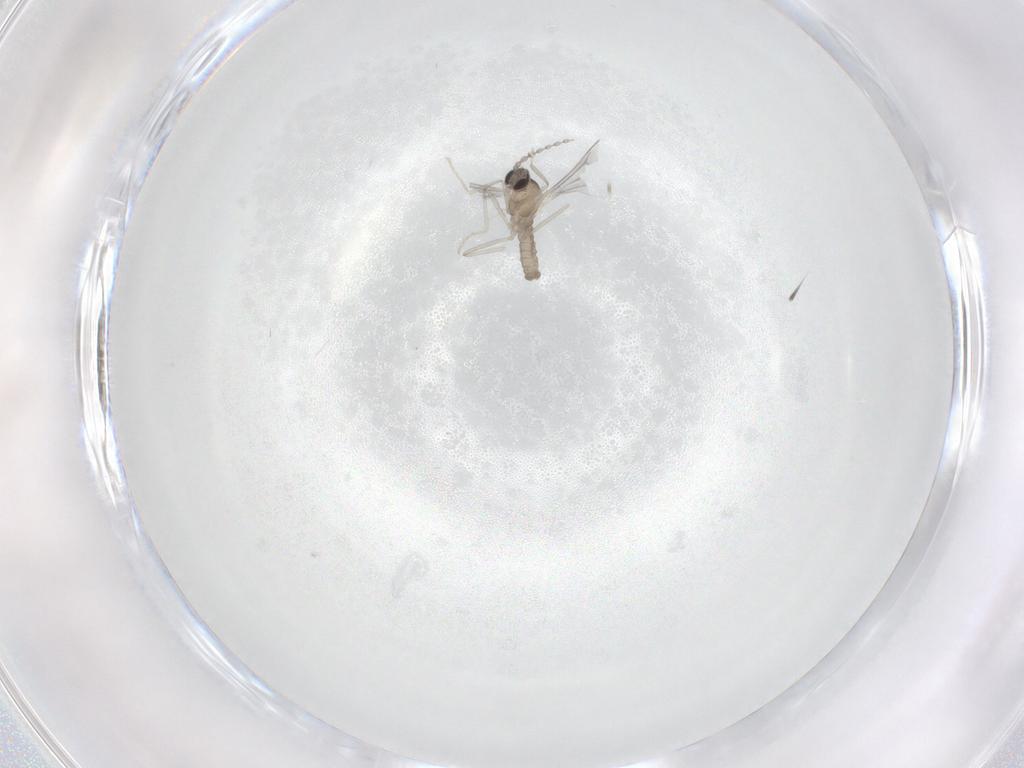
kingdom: Animalia
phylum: Arthropoda
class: Insecta
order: Diptera
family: Cecidomyiidae
